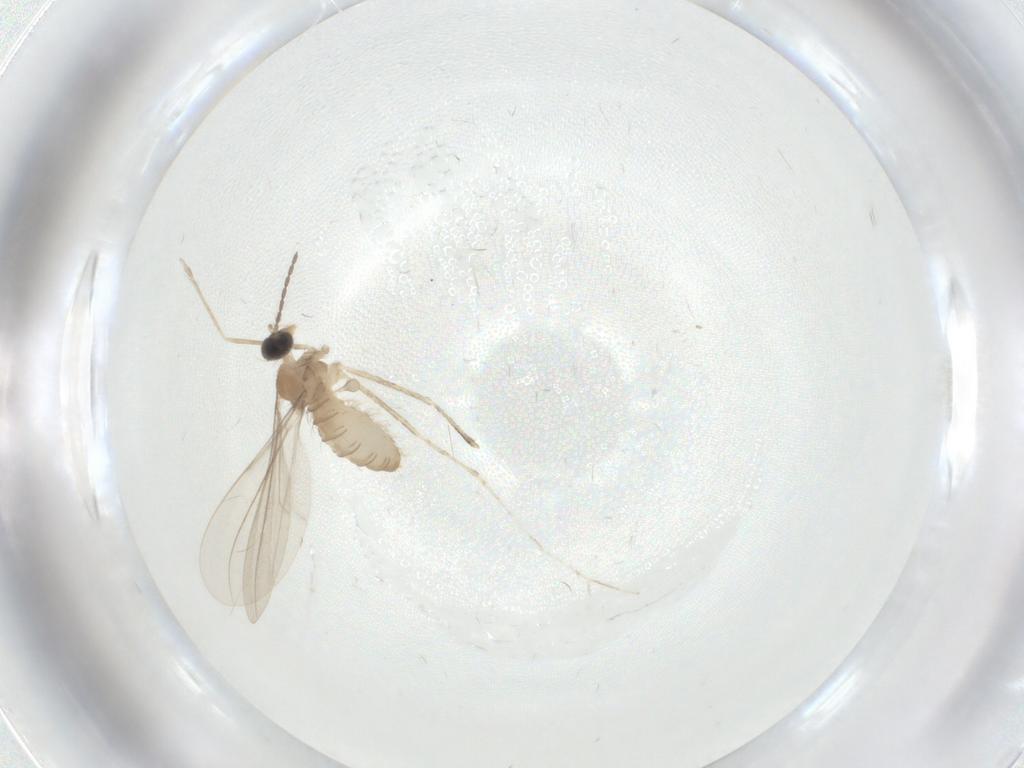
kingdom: Animalia
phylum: Arthropoda
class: Insecta
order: Diptera
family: Cecidomyiidae
